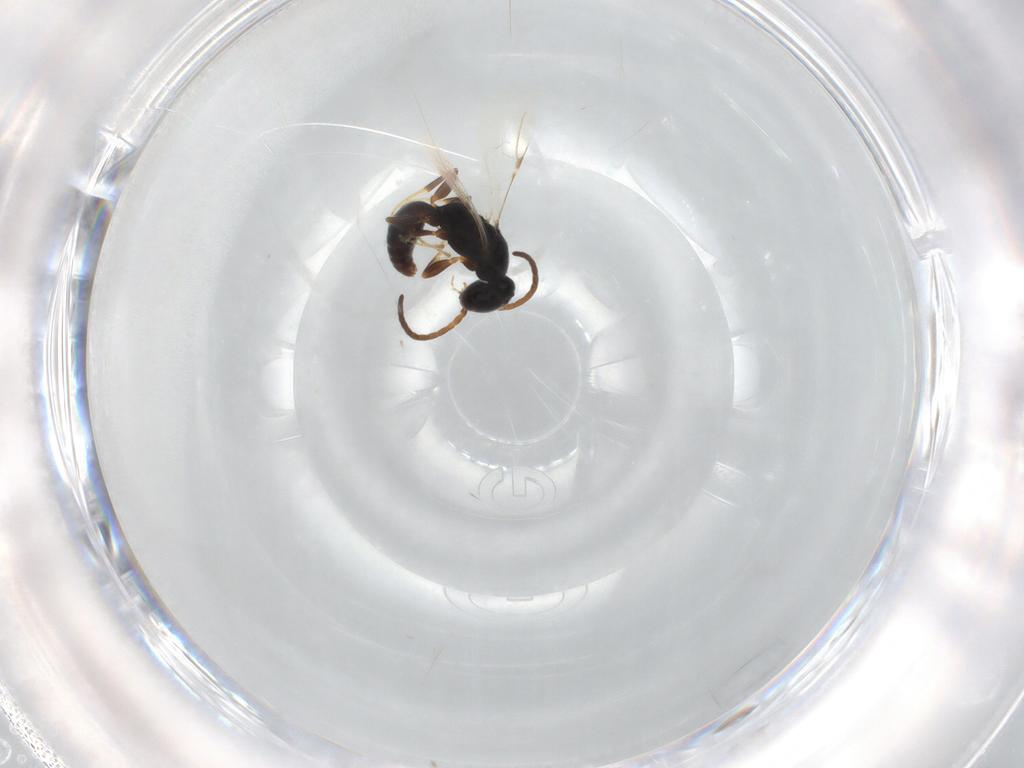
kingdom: Animalia
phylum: Arthropoda
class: Insecta
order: Hymenoptera
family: Bethylidae
